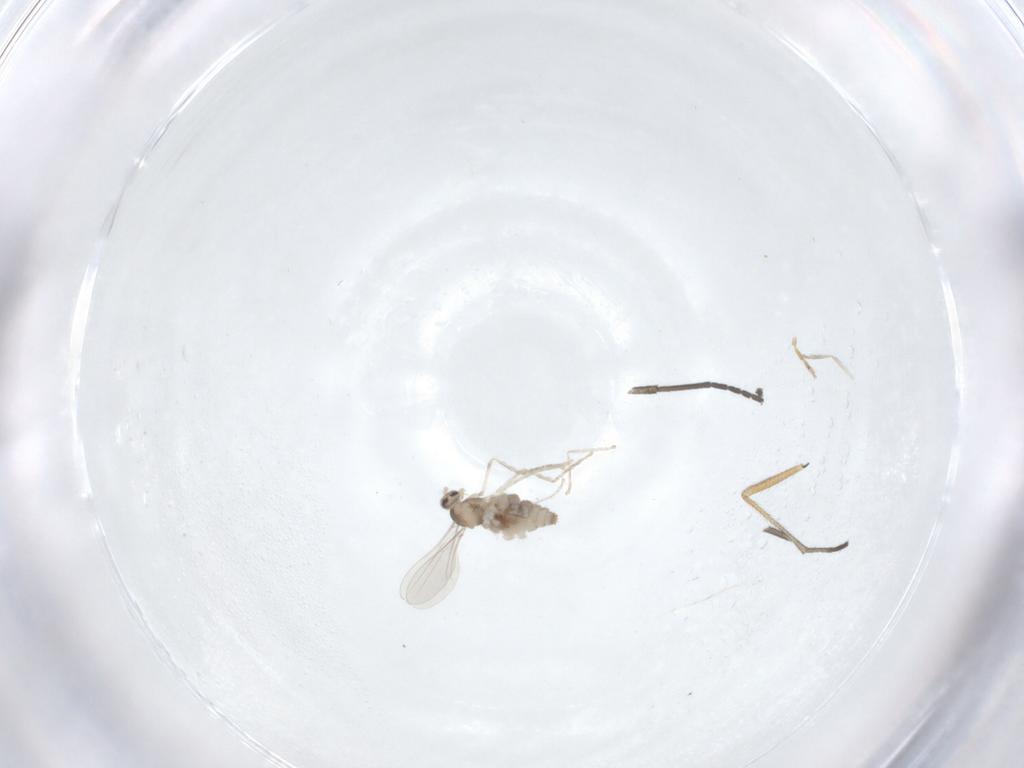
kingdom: Animalia
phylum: Arthropoda
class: Insecta
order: Diptera
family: Cecidomyiidae
